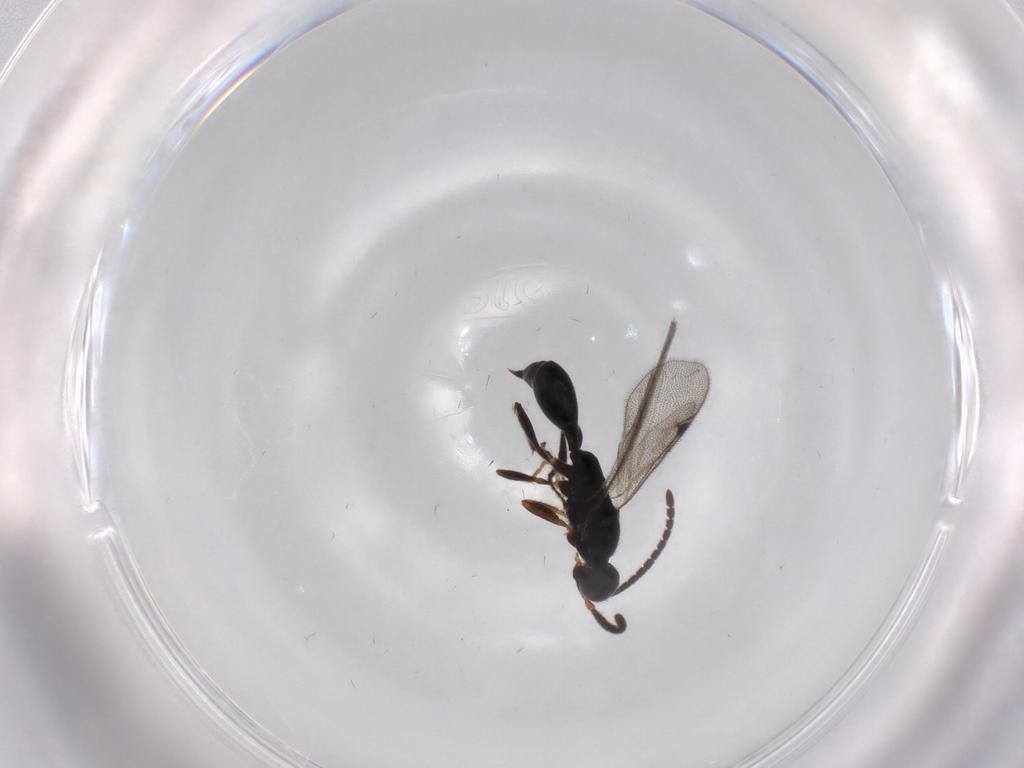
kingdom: Animalia
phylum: Arthropoda
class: Insecta
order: Hymenoptera
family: Proctotrupidae
